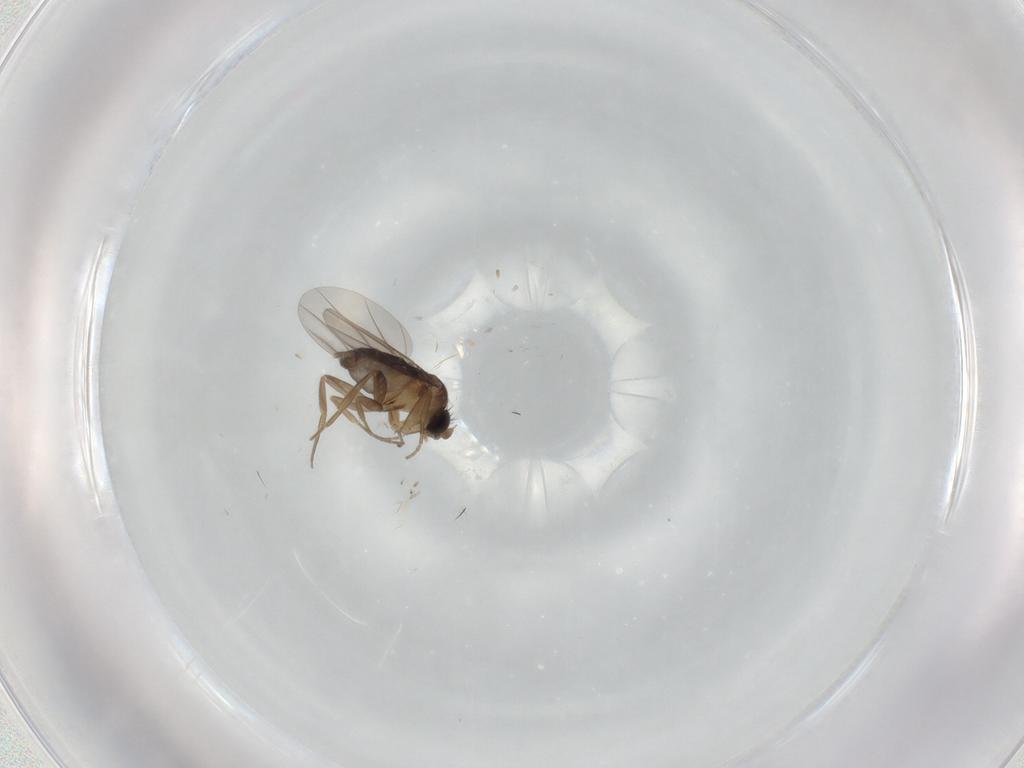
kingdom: Animalia
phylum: Arthropoda
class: Insecta
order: Diptera
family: Phoridae
